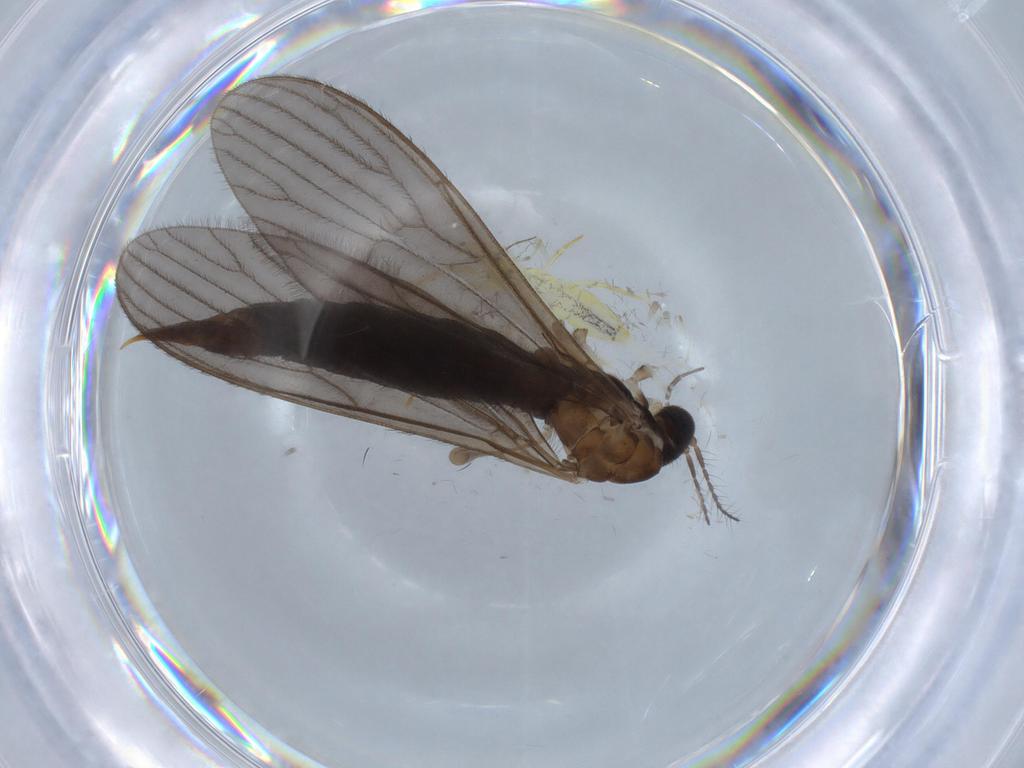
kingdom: Animalia
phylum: Arthropoda
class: Insecta
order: Diptera
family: Limoniidae
